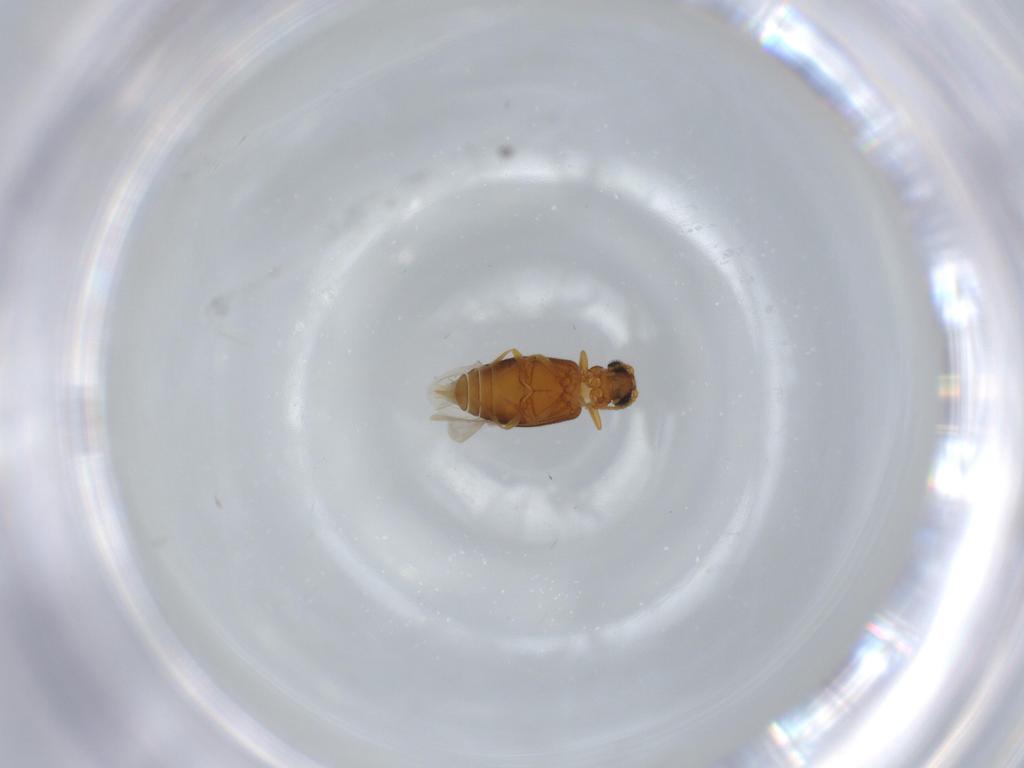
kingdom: Animalia
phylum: Arthropoda
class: Insecta
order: Coleoptera
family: Aderidae
